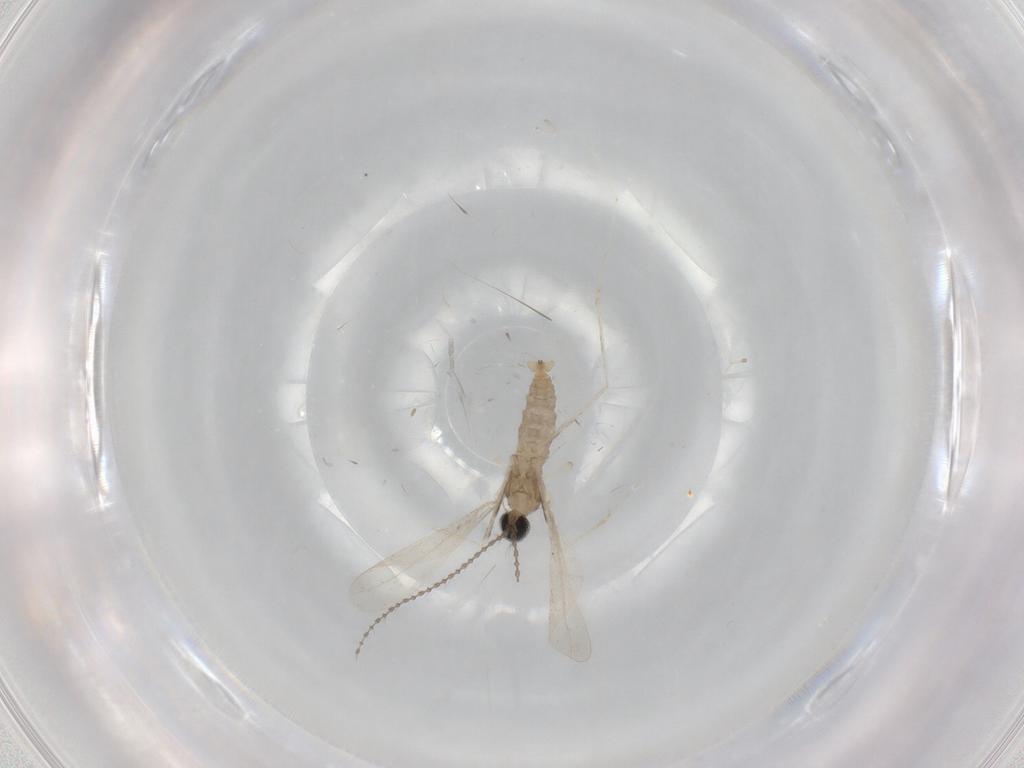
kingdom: Animalia
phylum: Arthropoda
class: Insecta
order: Diptera
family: Cecidomyiidae
